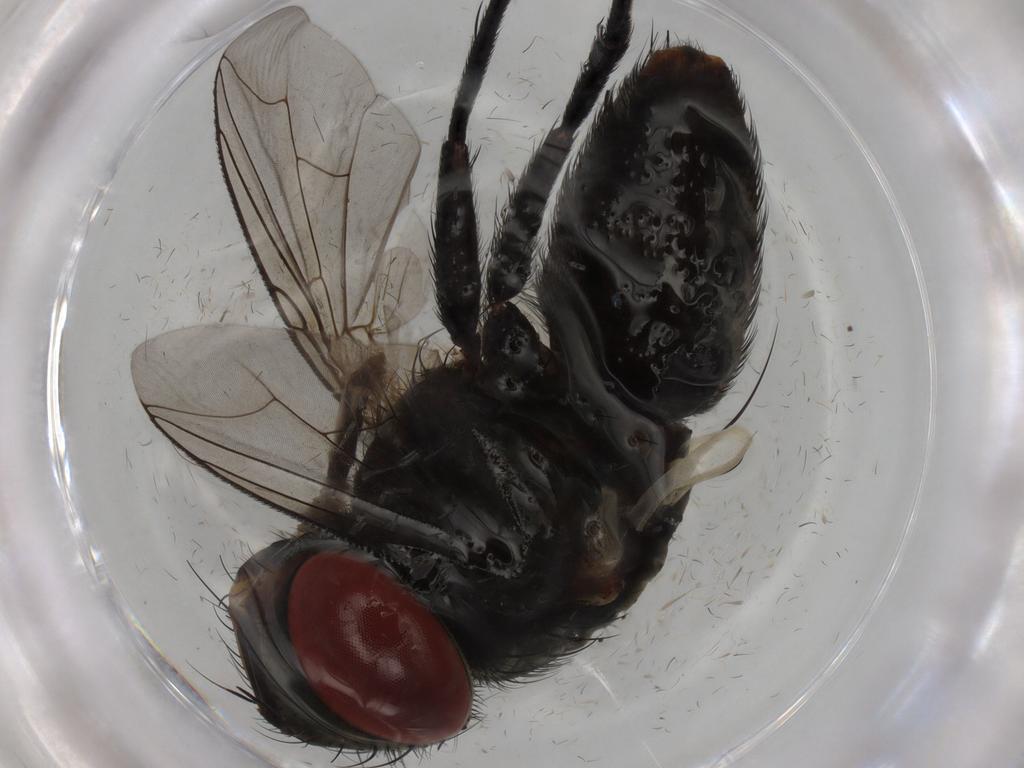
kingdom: Animalia
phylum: Arthropoda
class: Insecta
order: Diptera
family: Sarcophagidae
